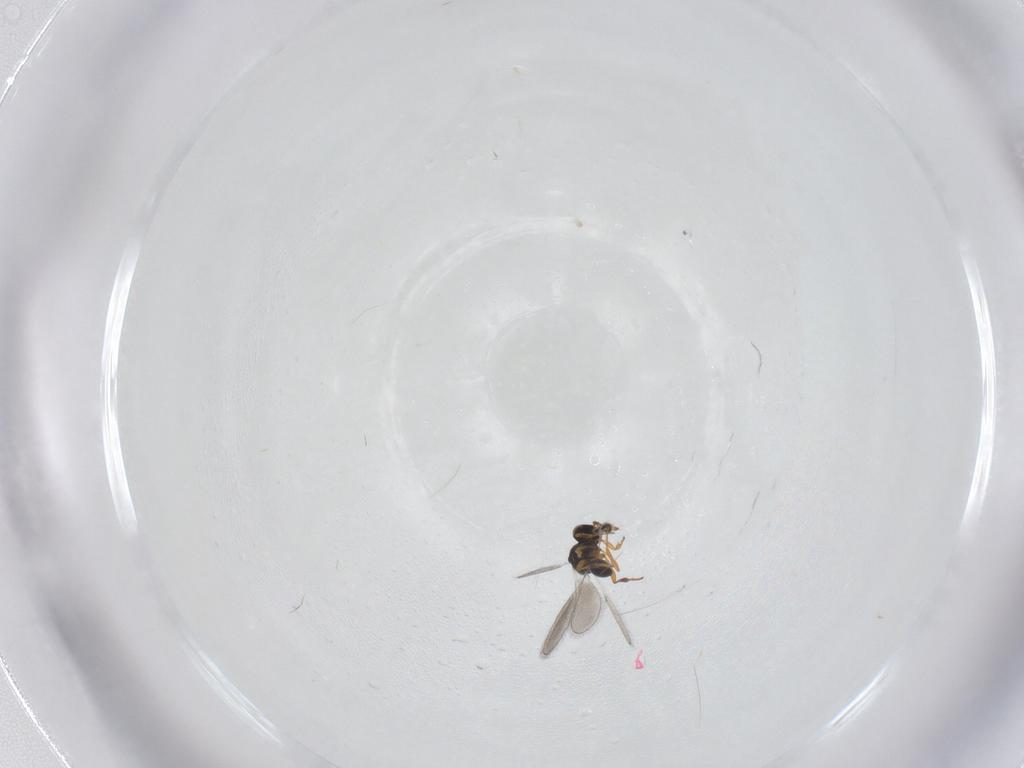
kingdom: Animalia
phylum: Arthropoda
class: Insecta
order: Hymenoptera
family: Platygastridae
